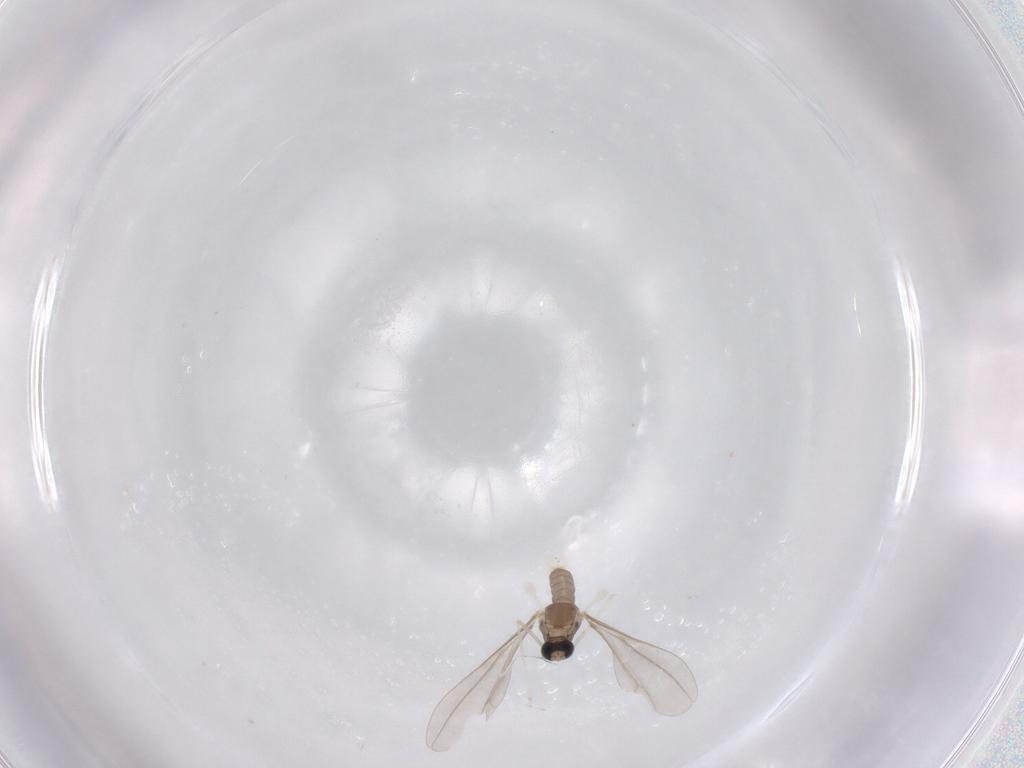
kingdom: Animalia
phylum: Arthropoda
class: Insecta
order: Diptera
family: Cecidomyiidae
